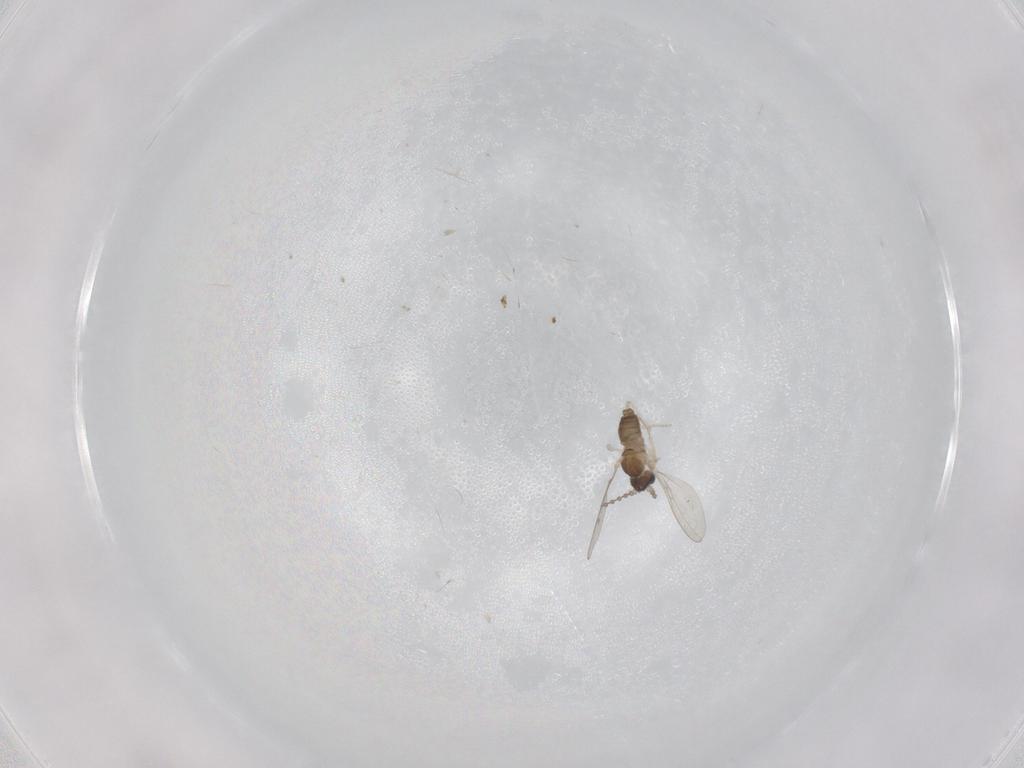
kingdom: Animalia
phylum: Arthropoda
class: Insecta
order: Diptera
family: Cecidomyiidae
